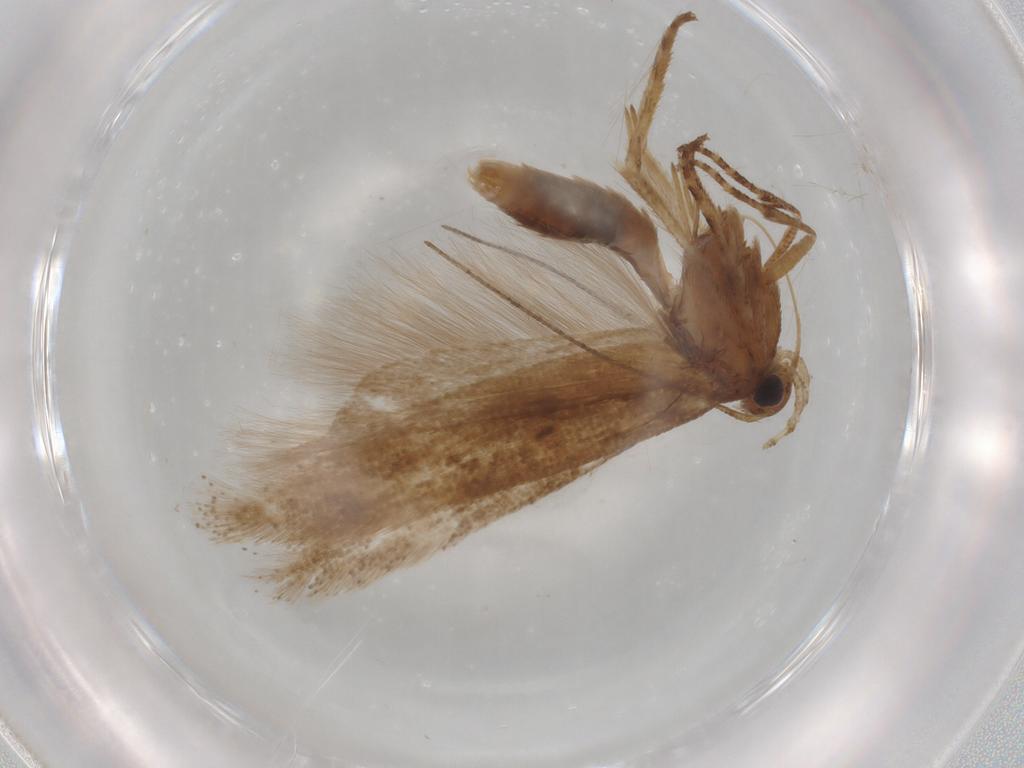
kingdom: Animalia
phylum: Arthropoda
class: Insecta
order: Lepidoptera
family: Gelechiidae
